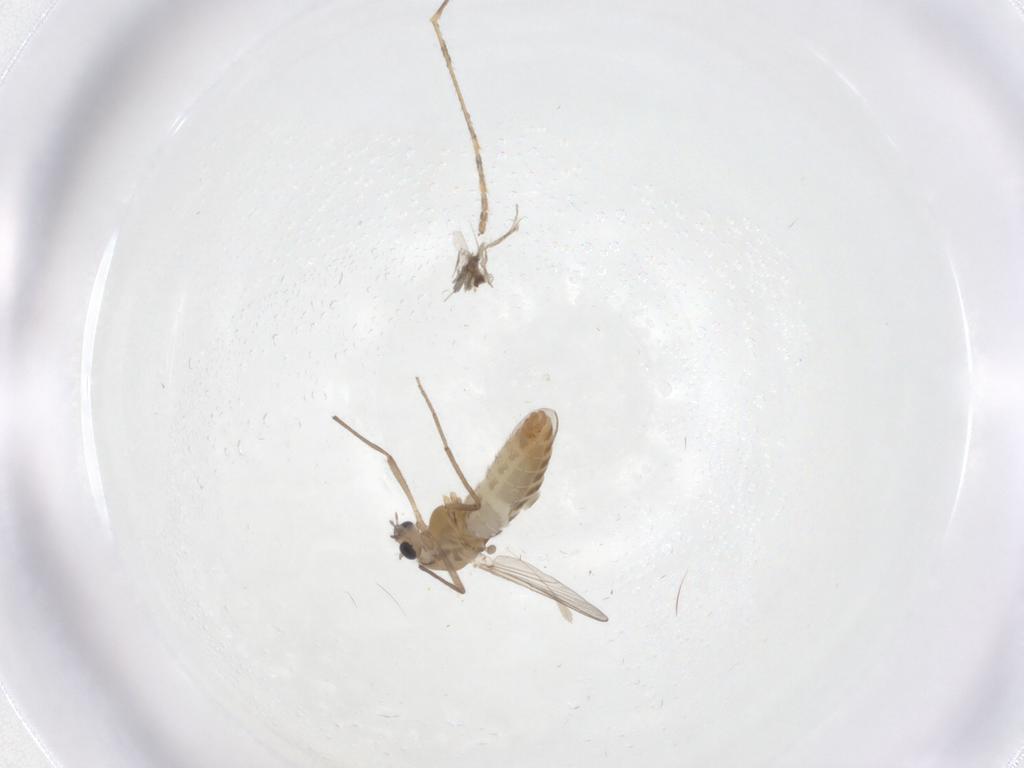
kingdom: Animalia
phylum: Arthropoda
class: Insecta
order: Diptera
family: Chironomidae
